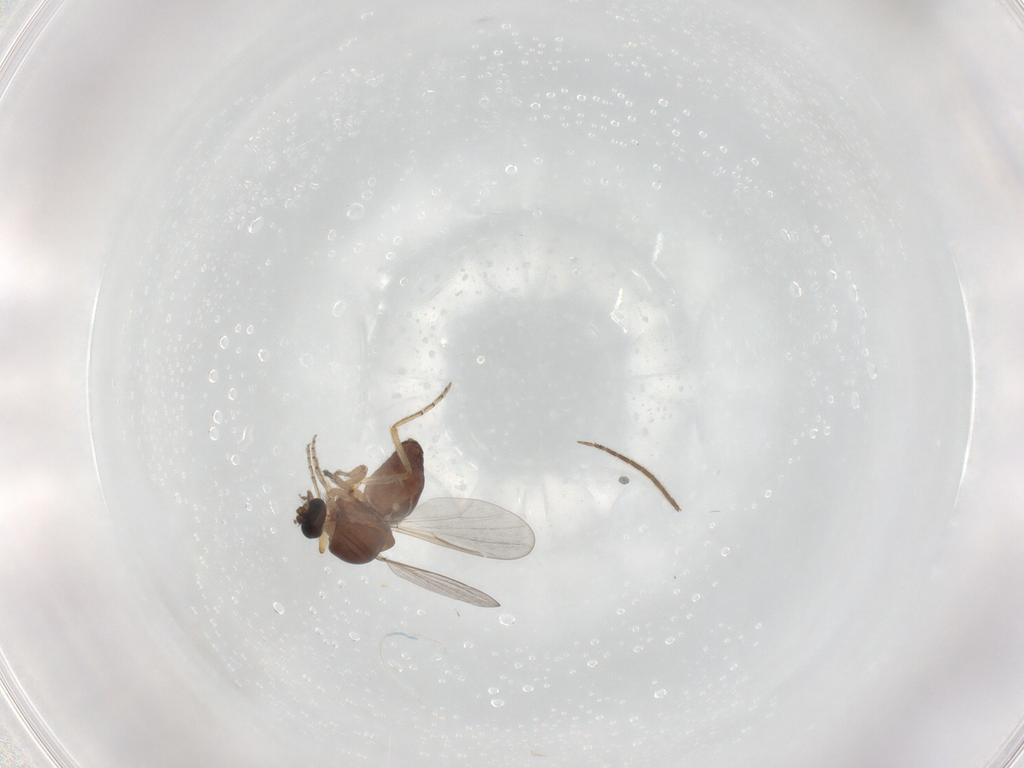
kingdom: Animalia
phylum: Arthropoda
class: Insecta
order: Diptera
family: Ceratopogonidae
